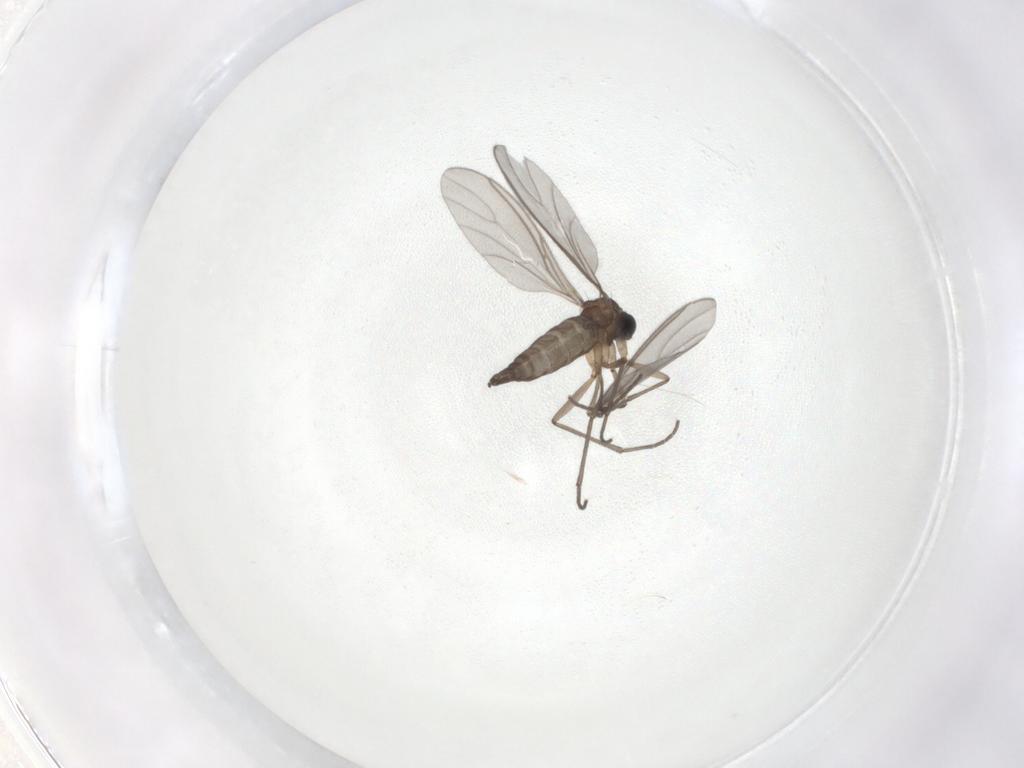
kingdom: Animalia
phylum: Arthropoda
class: Insecta
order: Diptera
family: Sciaridae
